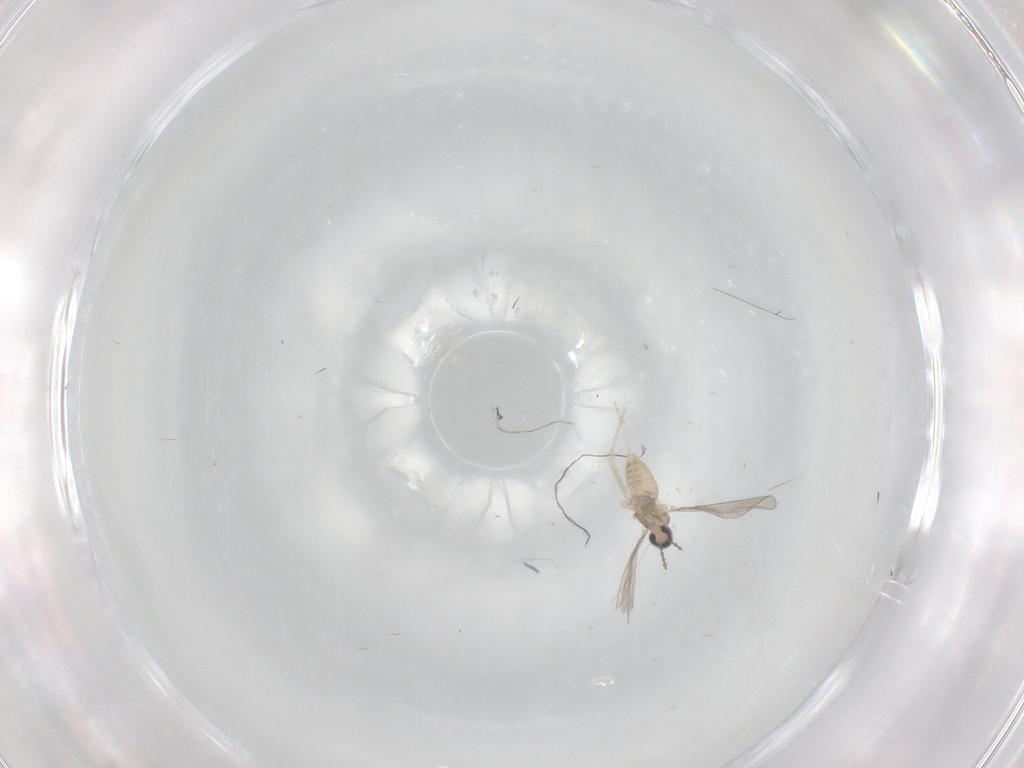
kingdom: Animalia
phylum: Arthropoda
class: Insecta
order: Diptera
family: Dolichopodidae
